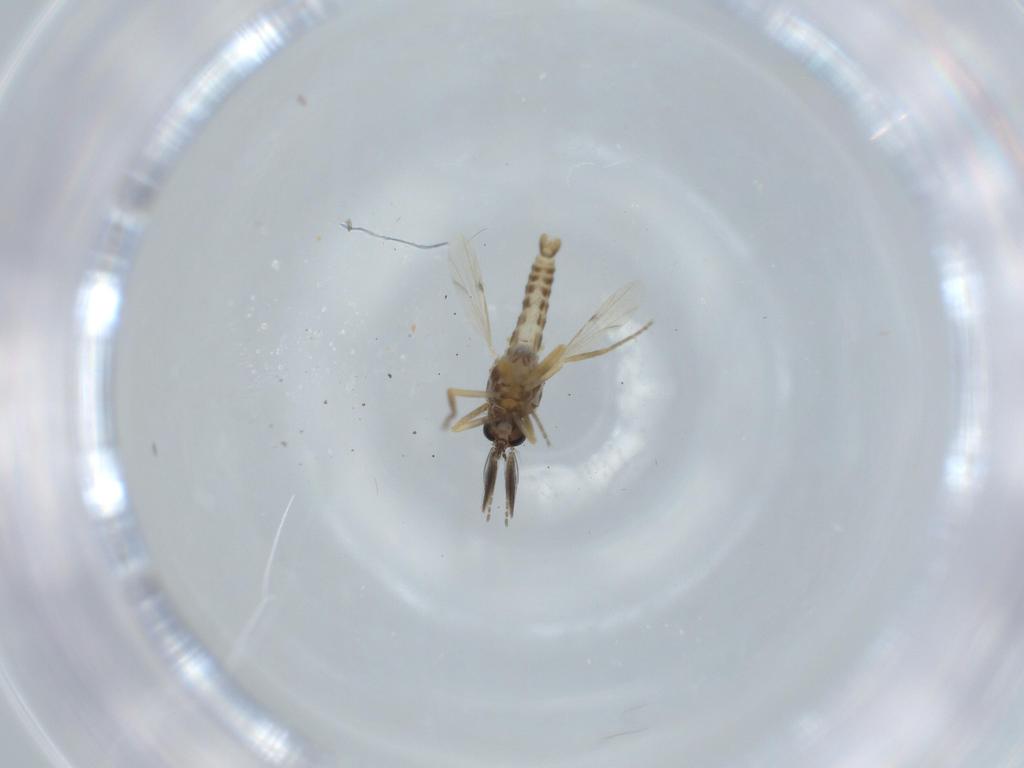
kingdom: Animalia
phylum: Arthropoda
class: Insecta
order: Diptera
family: Ceratopogonidae
